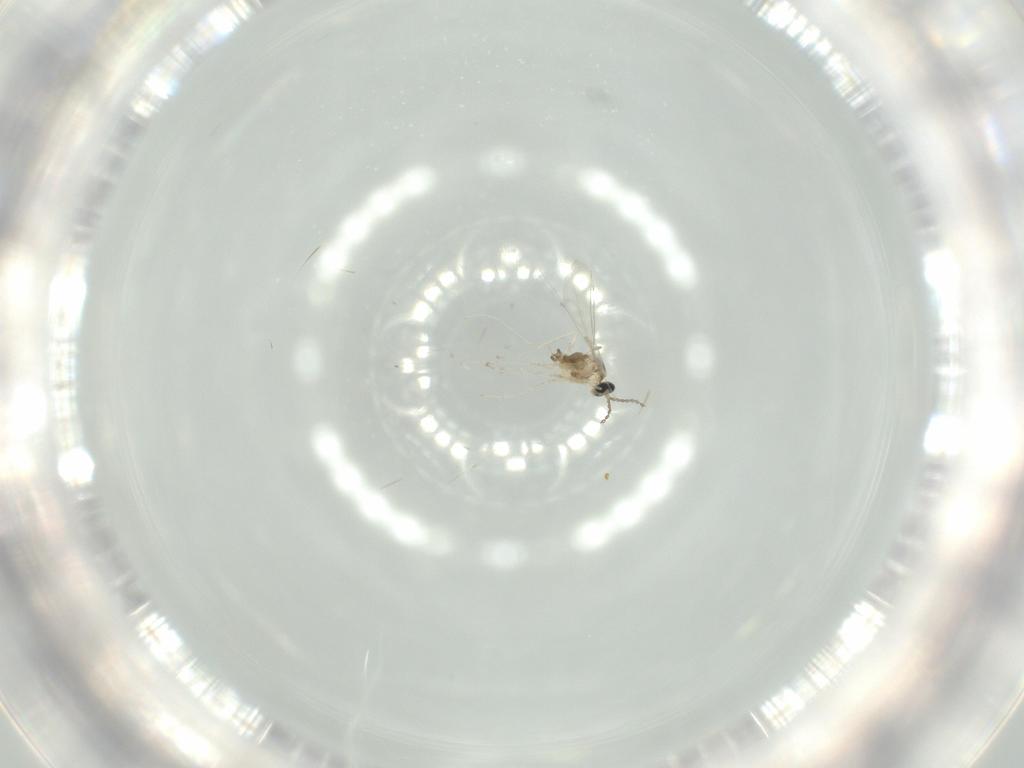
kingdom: Animalia
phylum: Arthropoda
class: Insecta
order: Diptera
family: Cecidomyiidae
